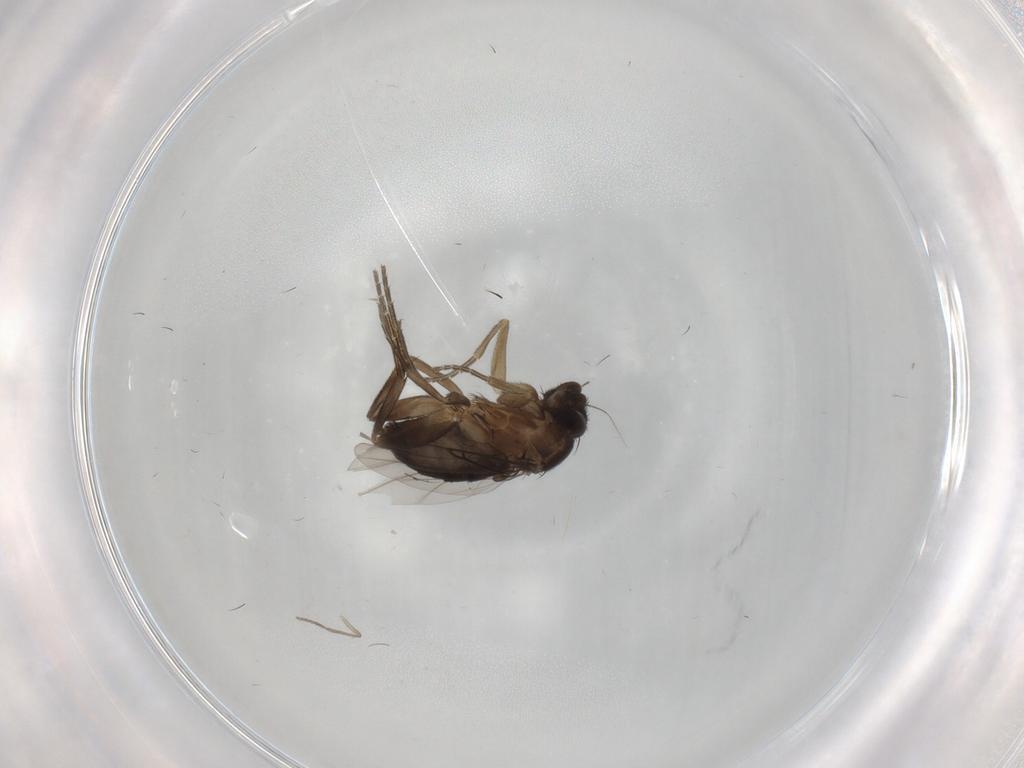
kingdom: Animalia
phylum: Arthropoda
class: Insecta
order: Diptera
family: Phoridae
